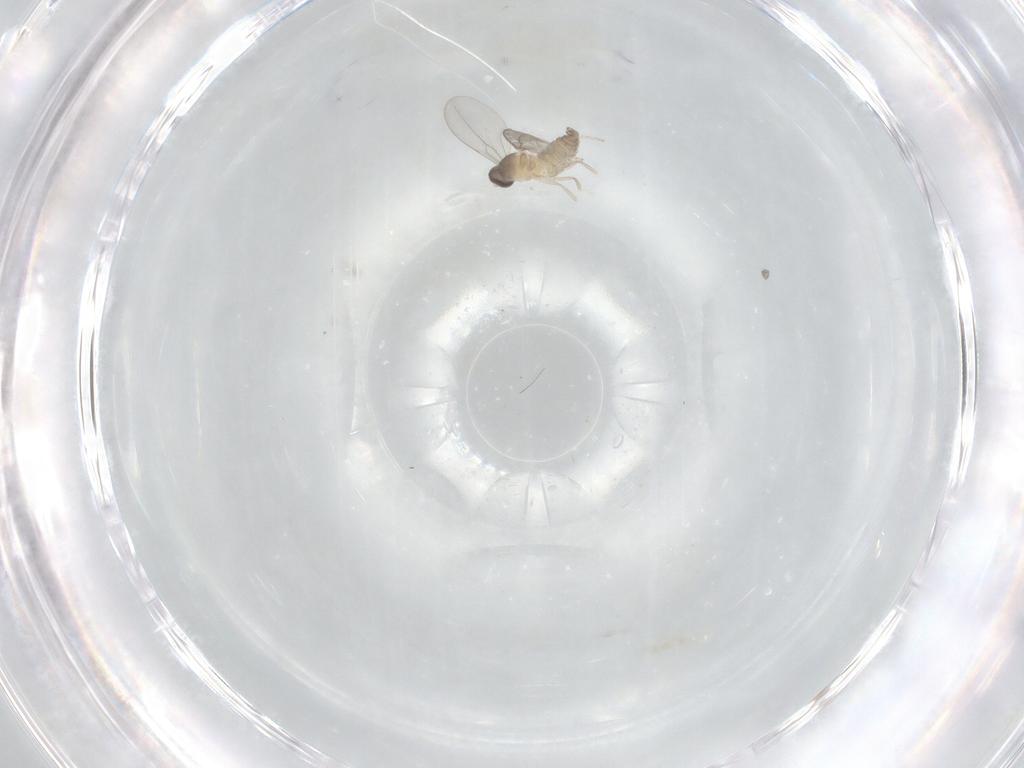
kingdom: Animalia
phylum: Arthropoda
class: Insecta
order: Diptera
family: Phoridae
